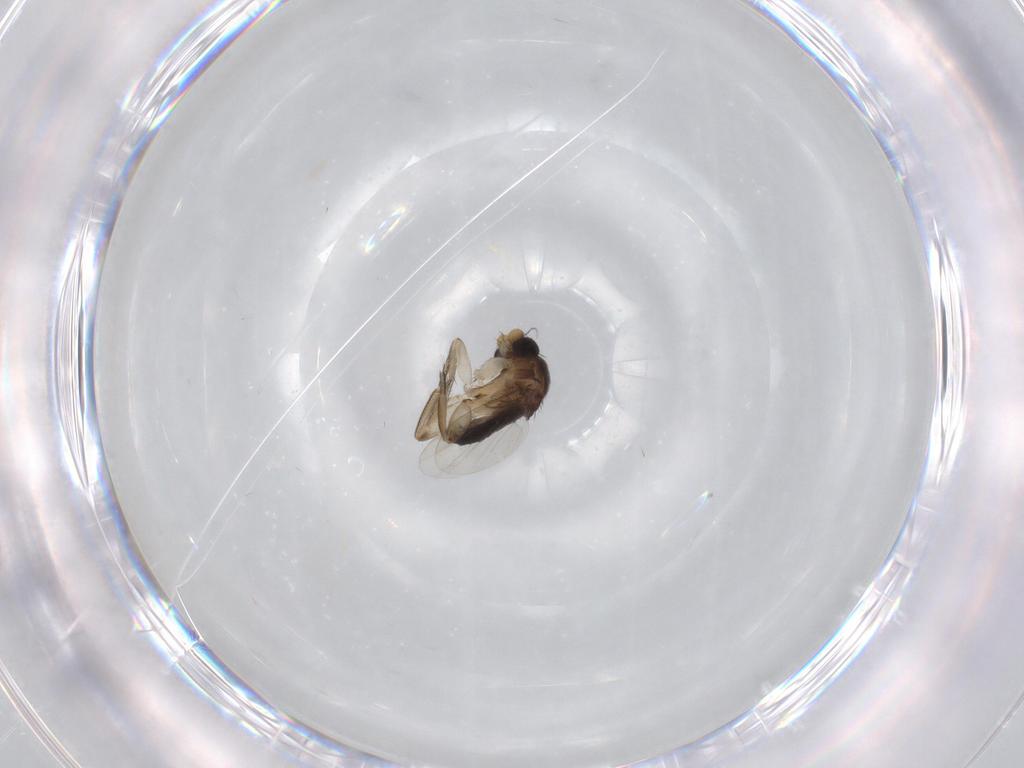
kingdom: Animalia
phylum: Arthropoda
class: Insecta
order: Diptera
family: Phoridae
